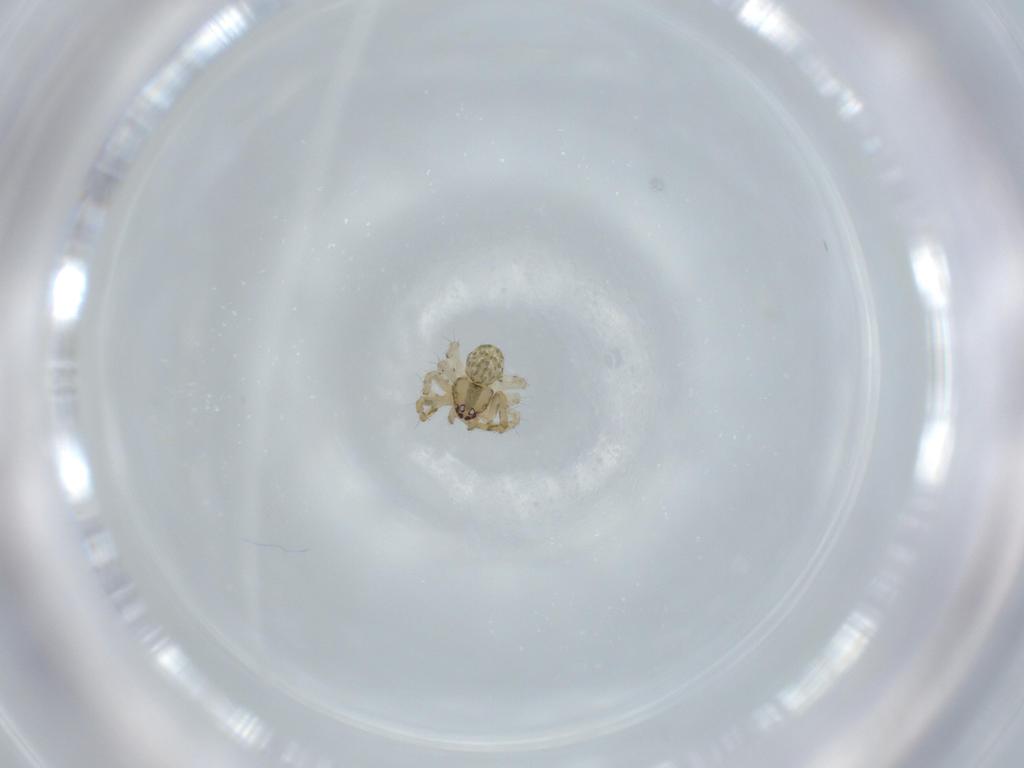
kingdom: Animalia
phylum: Arthropoda
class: Arachnida
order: Araneae
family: Theridiidae
